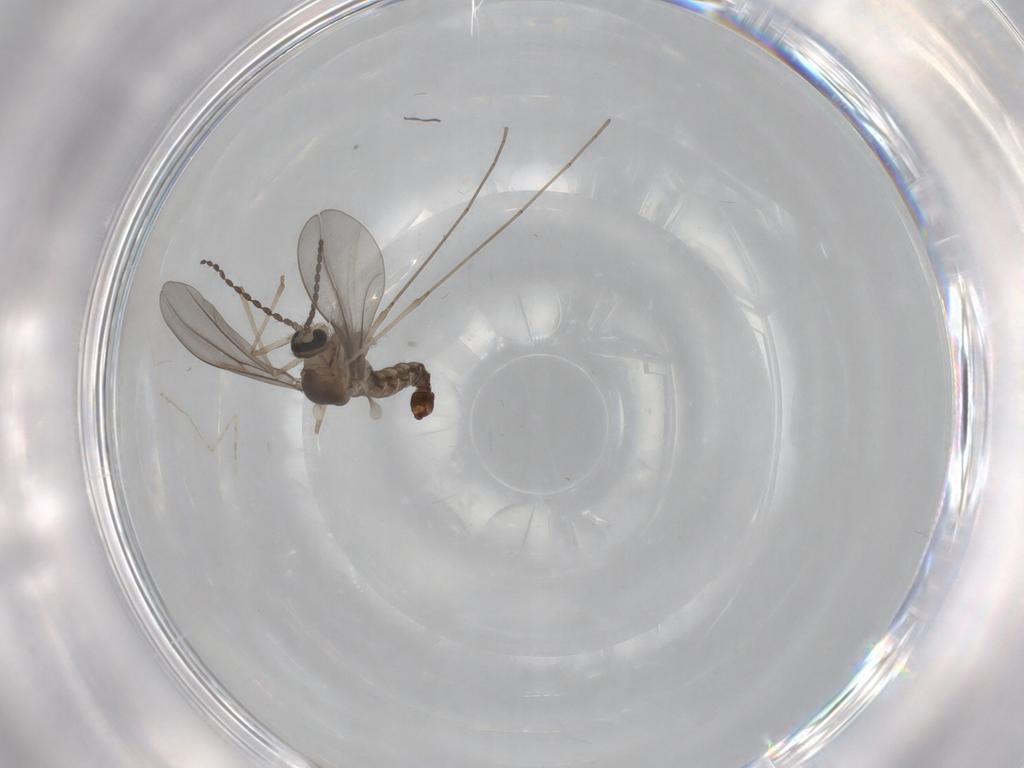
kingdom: Animalia
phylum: Arthropoda
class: Insecta
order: Diptera
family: Cecidomyiidae
